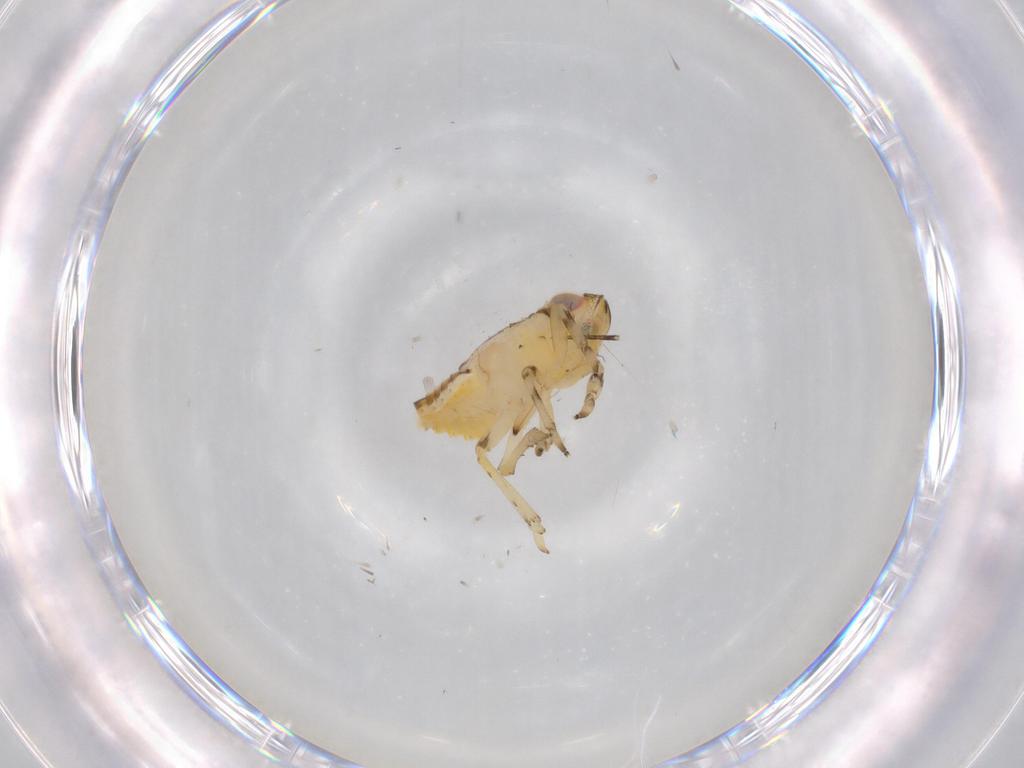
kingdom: Animalia
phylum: Arthropoda
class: Insecta
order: Hemiptera
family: Issidae
